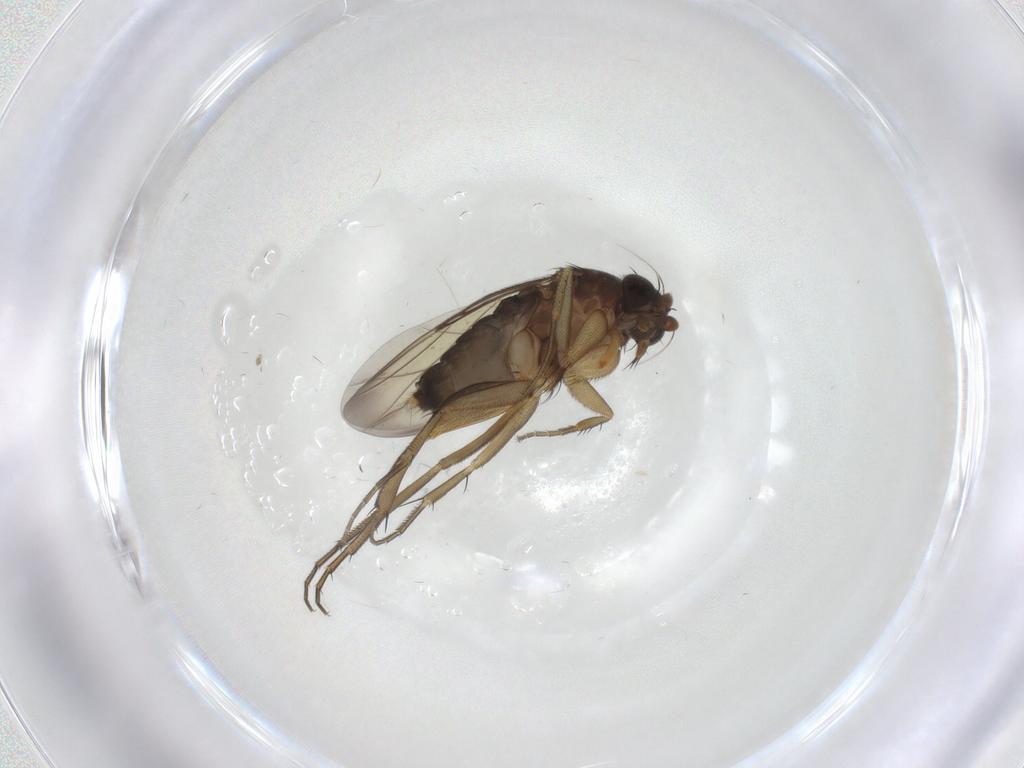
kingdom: Animalia
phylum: Arthropoda
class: Insecta
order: Diptera
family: Phoridae
